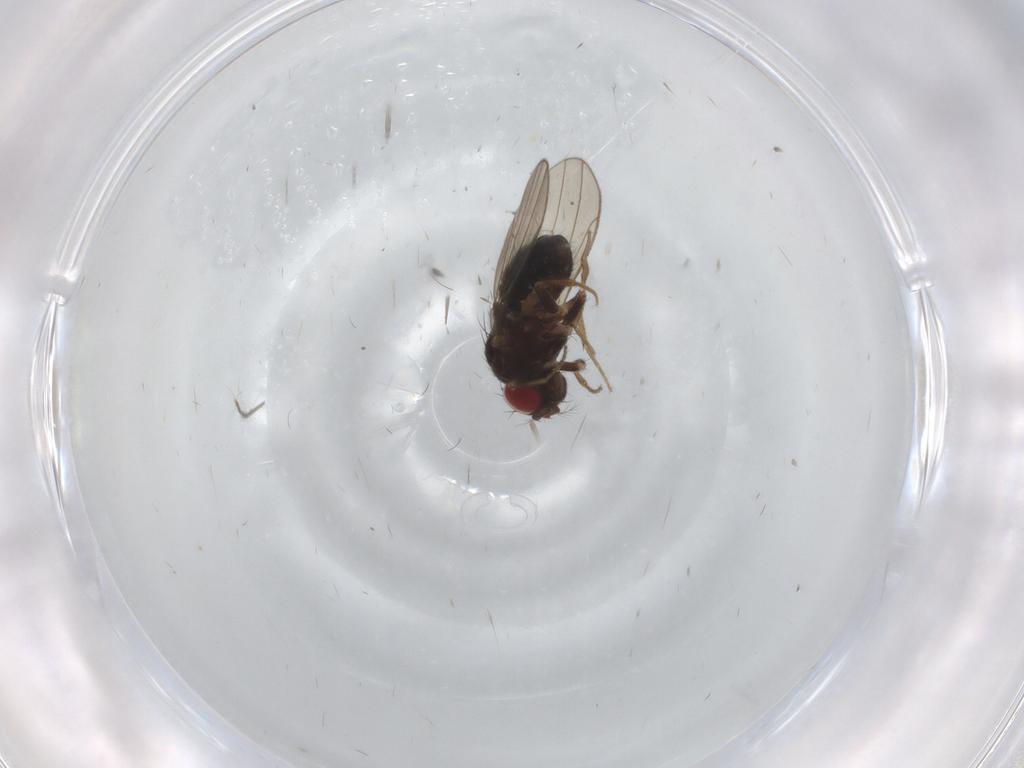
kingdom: Animalia
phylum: Arthropoda
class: Insecta
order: Diptera
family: Drosophilidae
